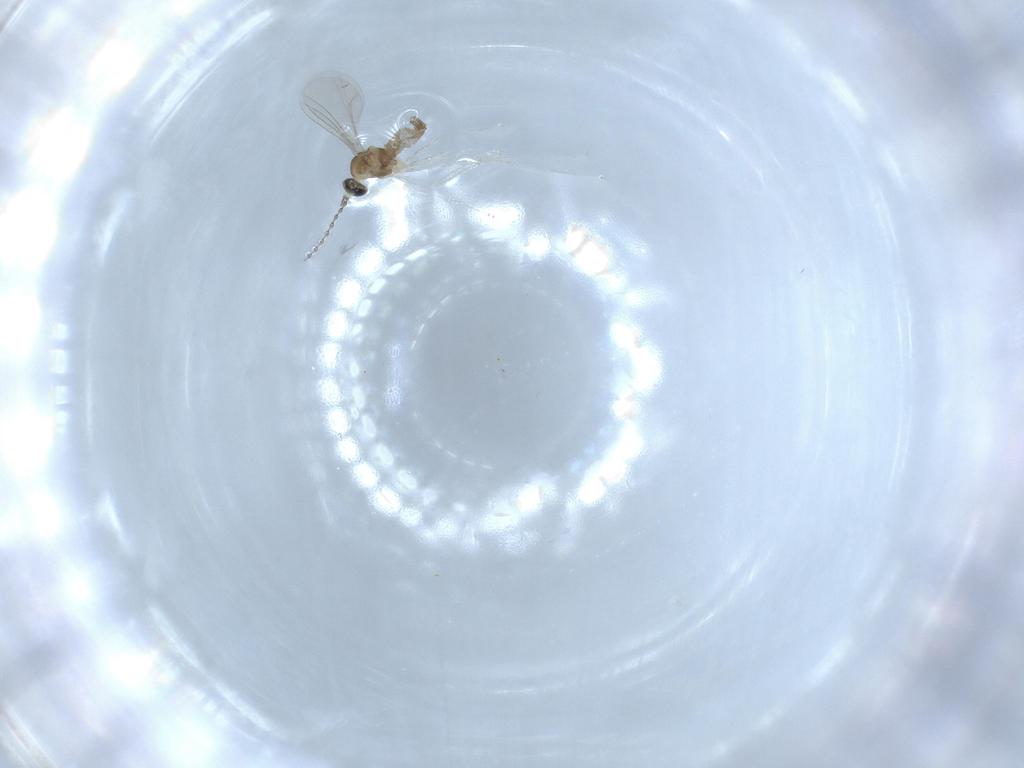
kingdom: Animalia
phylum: Arthropoda
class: Insecta
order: Diptera
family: Cecidomyiidae
